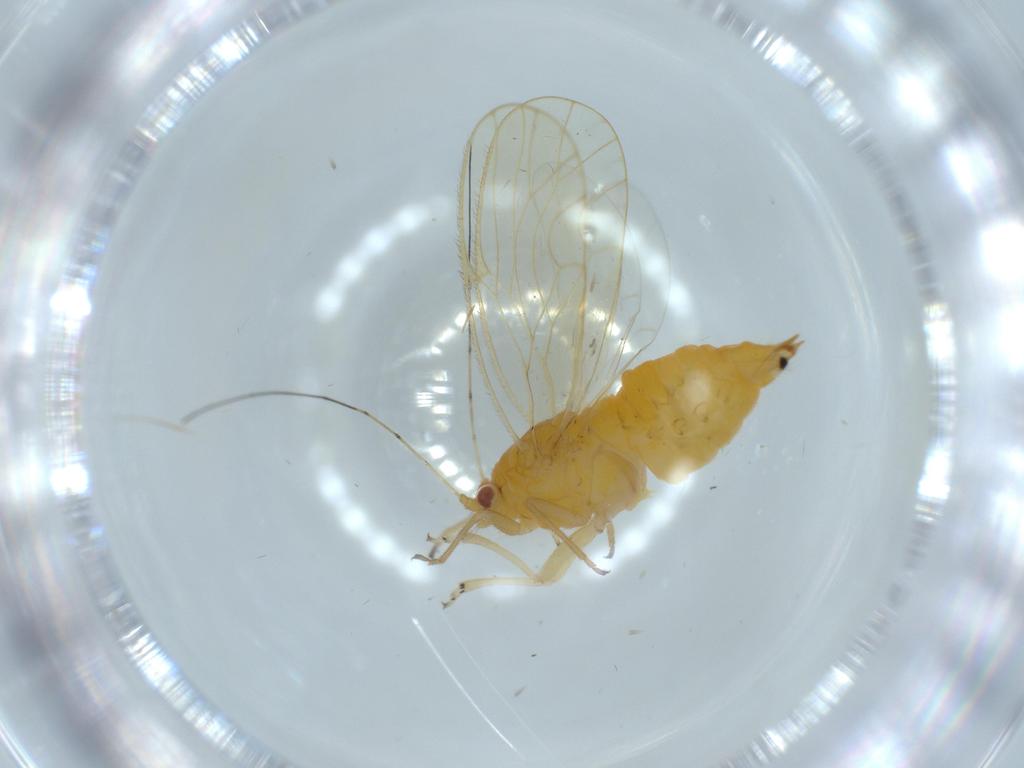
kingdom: Animalia
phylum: Arthropoda
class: Insecta
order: Hemiptera
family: Psyllidae
